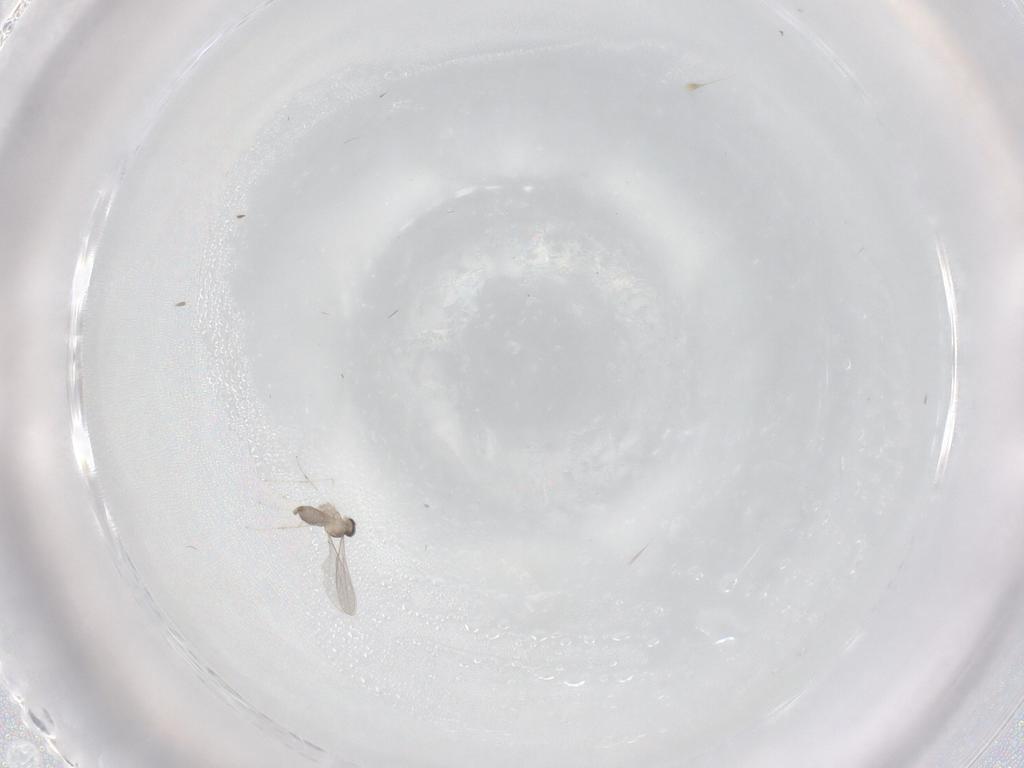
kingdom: Animalia
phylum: Arthropoda
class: Insecta
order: Diptera
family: Cecidomyiidae
